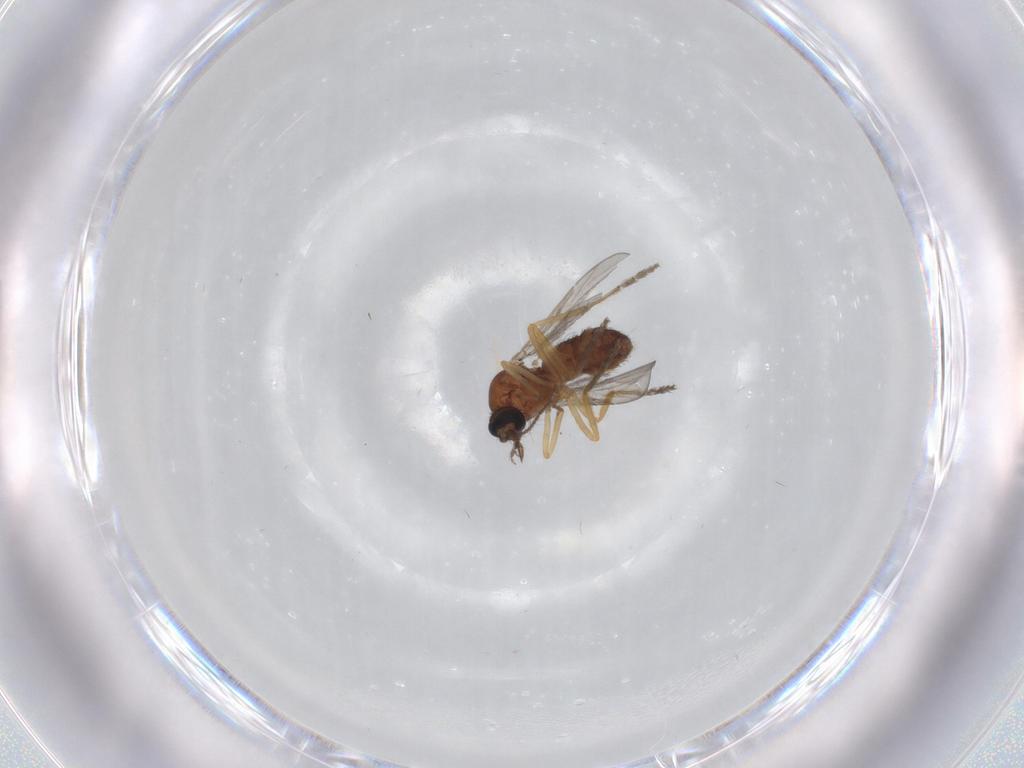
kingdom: Animalia
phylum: Arthropoda
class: Insecta
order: Diptera
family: Ceratopogonidae
